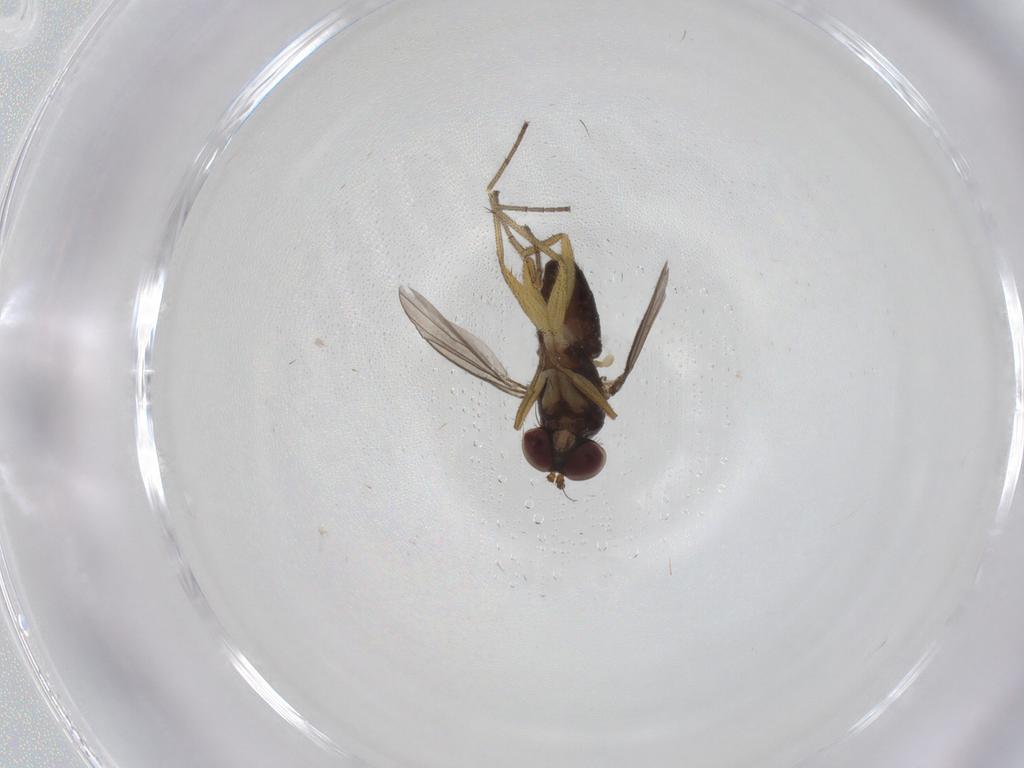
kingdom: Animalia
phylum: Arthropoda
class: Insecta
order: Diptera
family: Dolichopodidae
